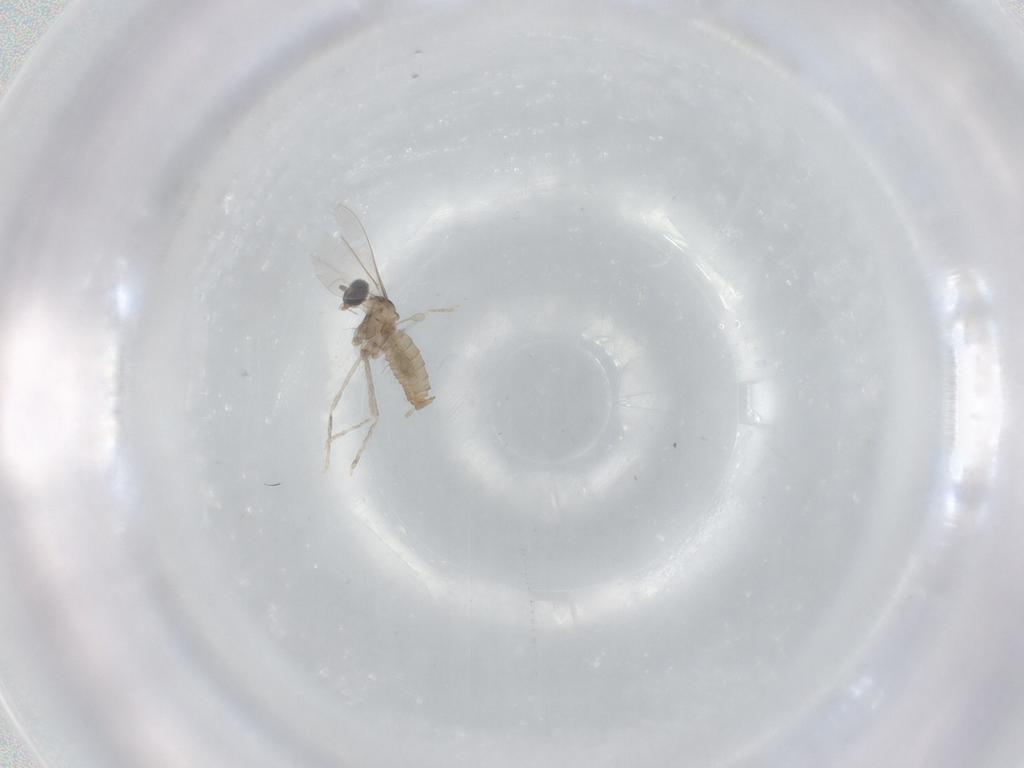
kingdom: Animalia
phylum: Arthropoda
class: Insecta
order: Diptera
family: Cecidomyiidae
